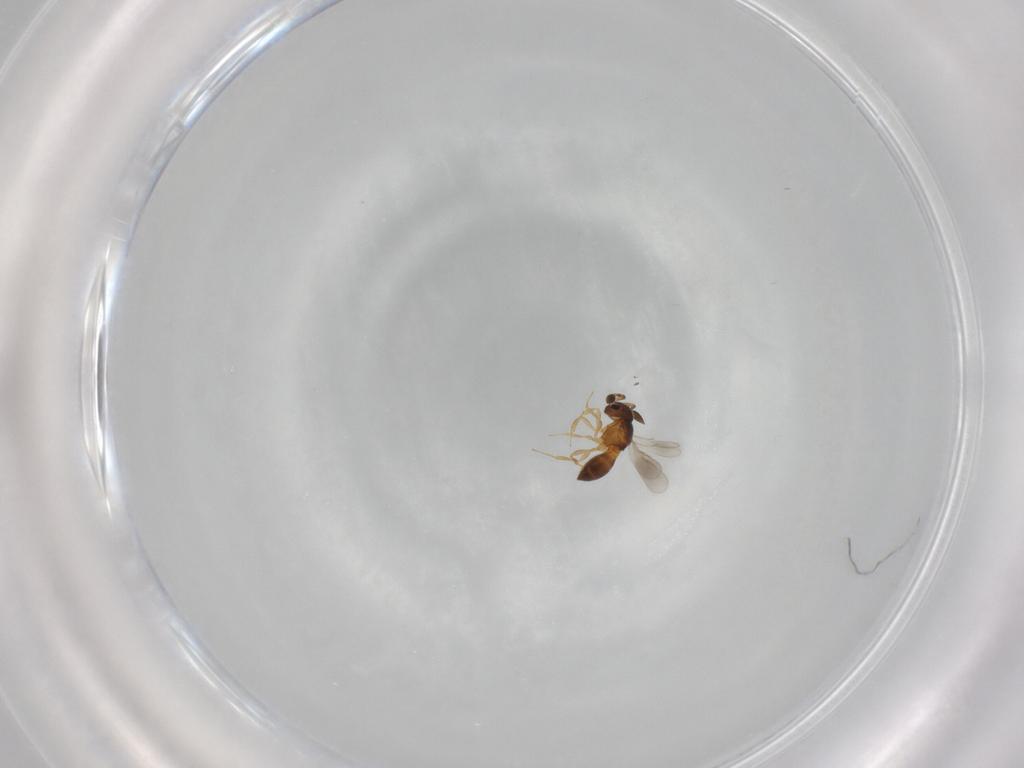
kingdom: Animalia
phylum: Arthropoda
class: Insecta
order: Hymenoptera
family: Scelionidae
